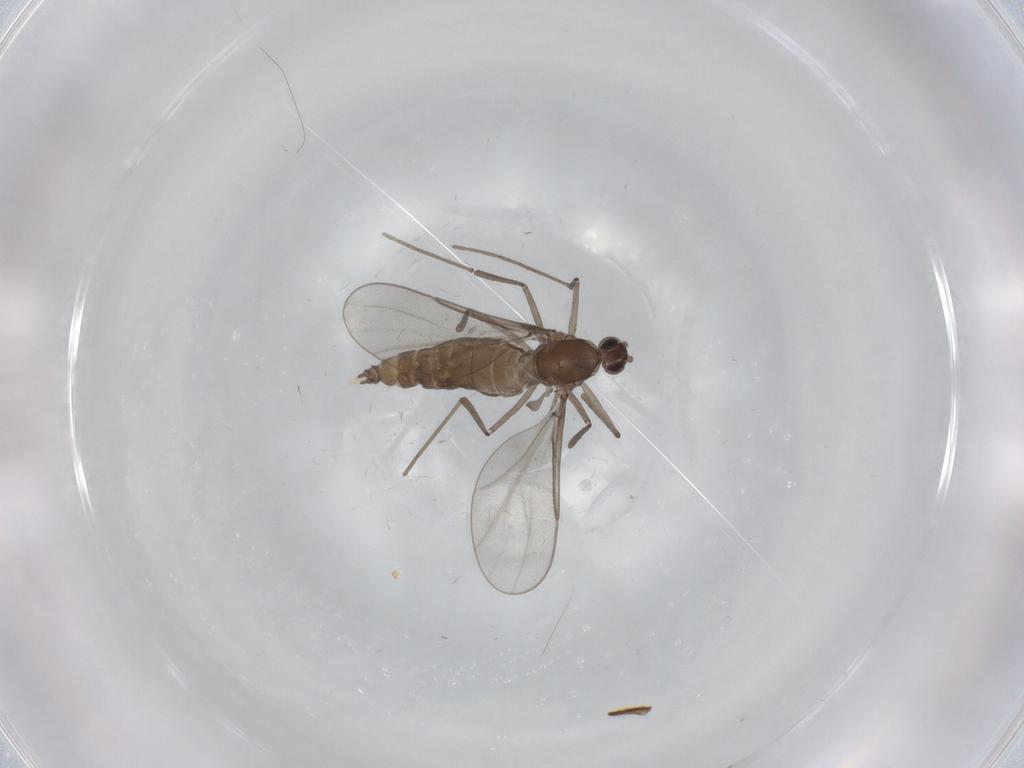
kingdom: Animalia
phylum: Arthropoda
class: Insecta
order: Diptera
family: Cecidomyiidae
